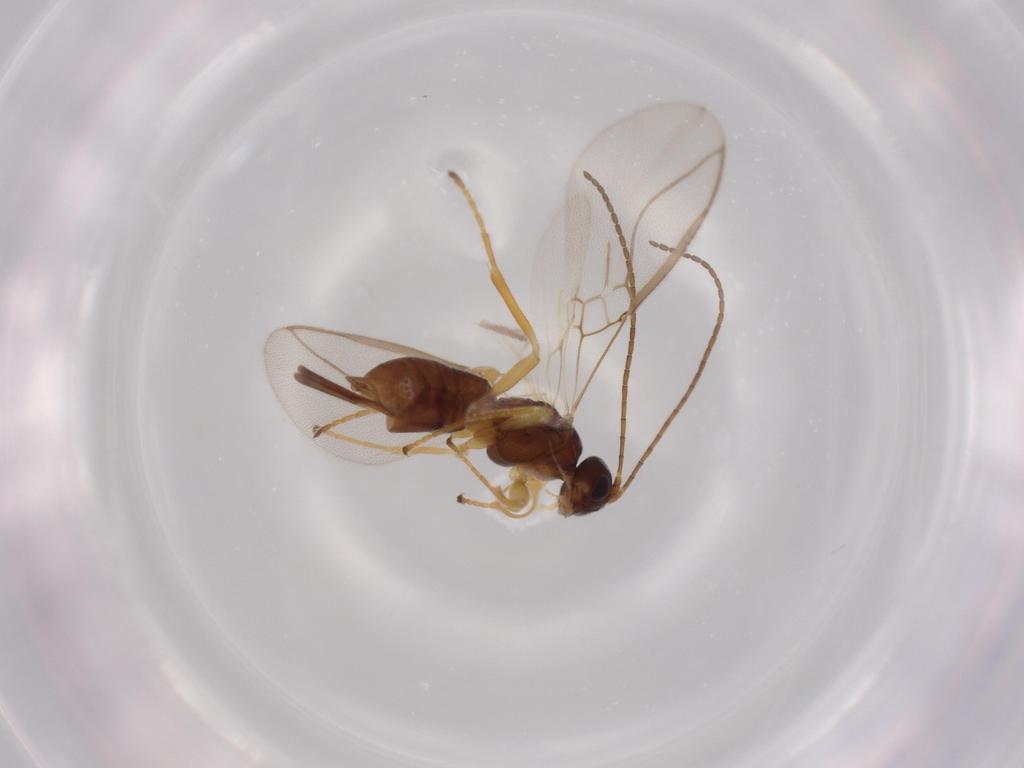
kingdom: Animalia
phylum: Arthropoda
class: Insecta
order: Hymenoptera
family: Braconidae
